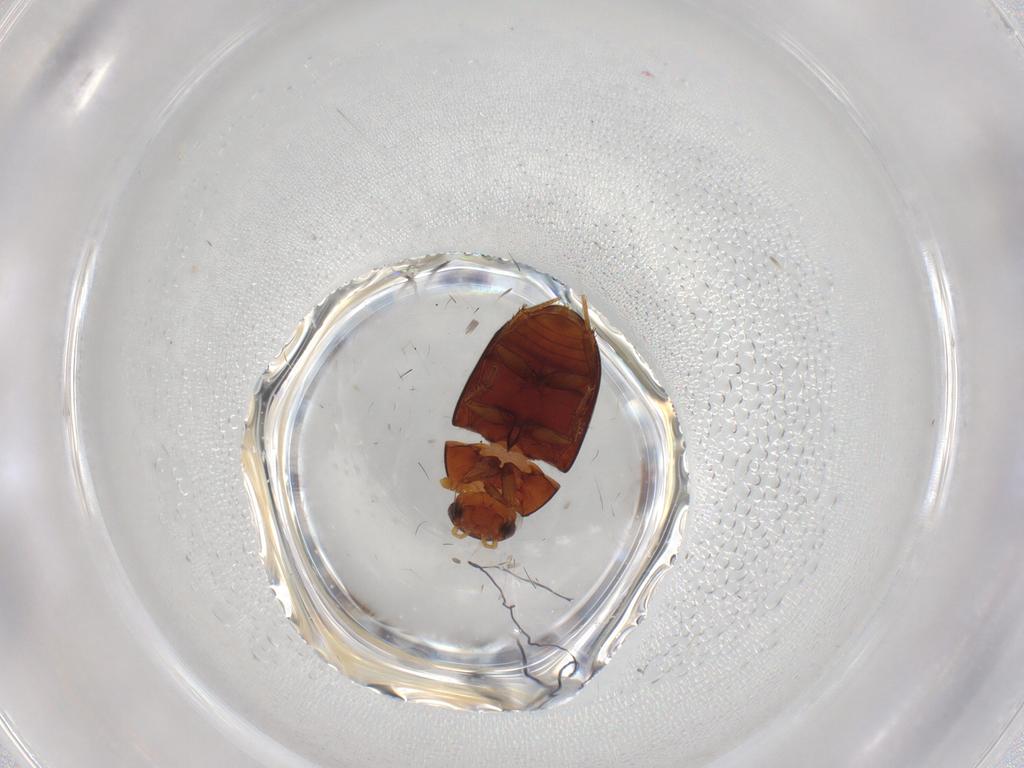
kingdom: Animalia
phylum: Arthropoda
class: Insecta
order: Coleoptera
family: Hydrophilidae
